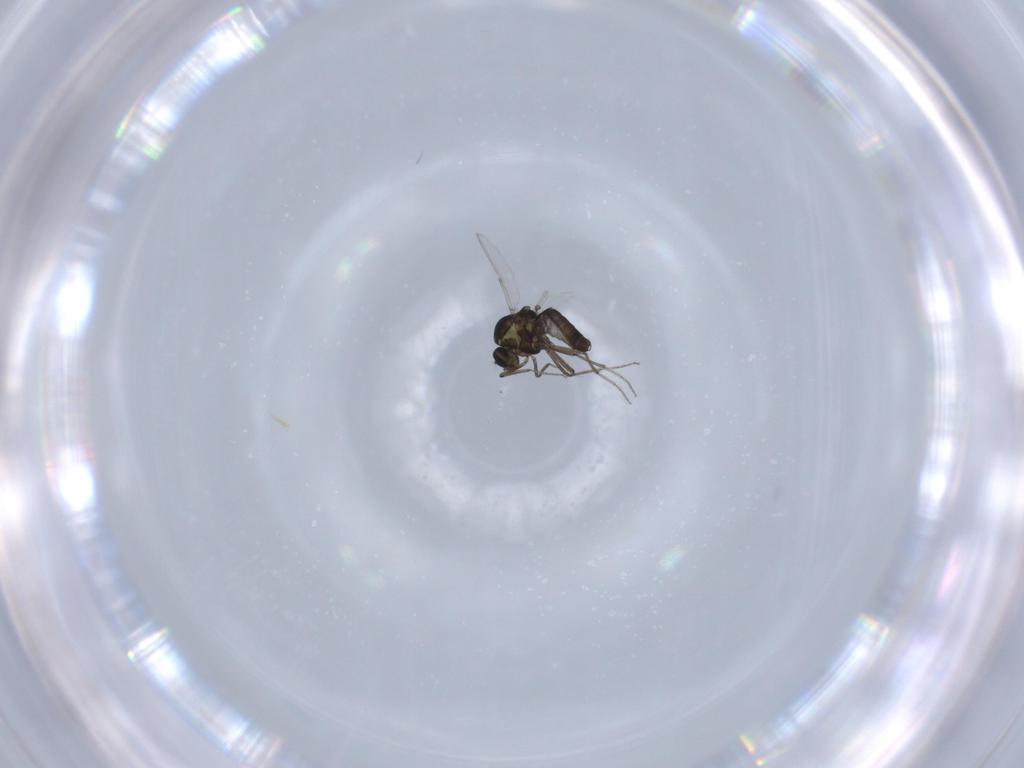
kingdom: Animalia
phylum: Arthropoda
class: Insecta
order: Diptera
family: Ceratopogonidae
